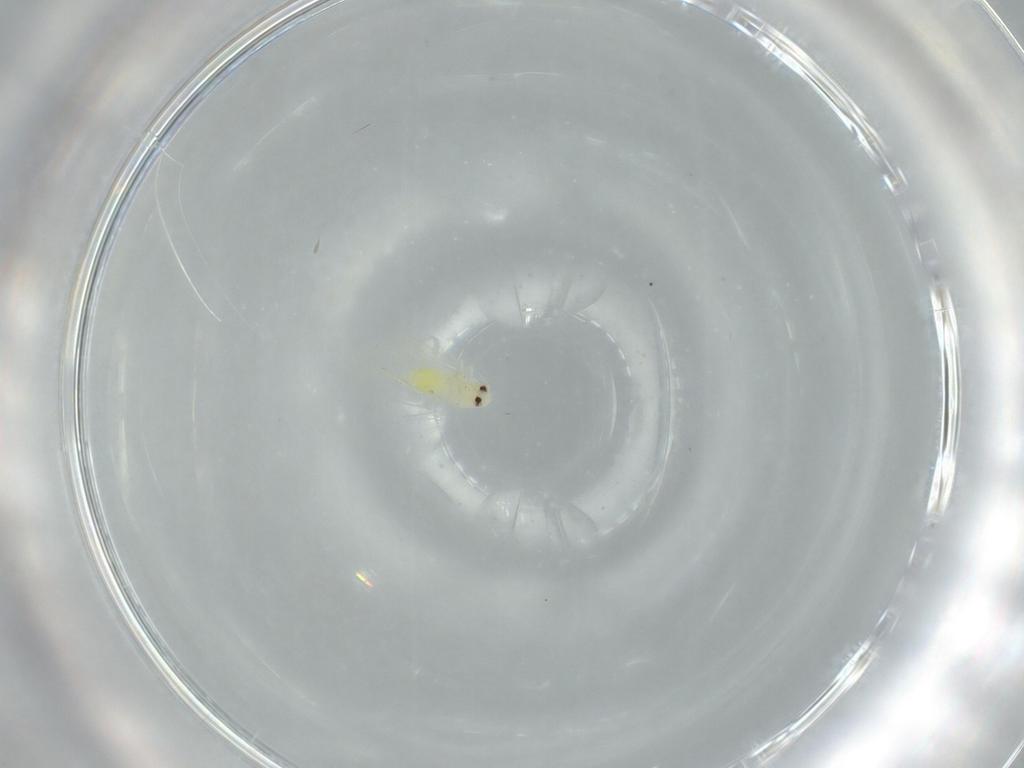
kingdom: Animalia
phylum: Arthropoda
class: Insecta
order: Hemiptera
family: Aleyrodidae
